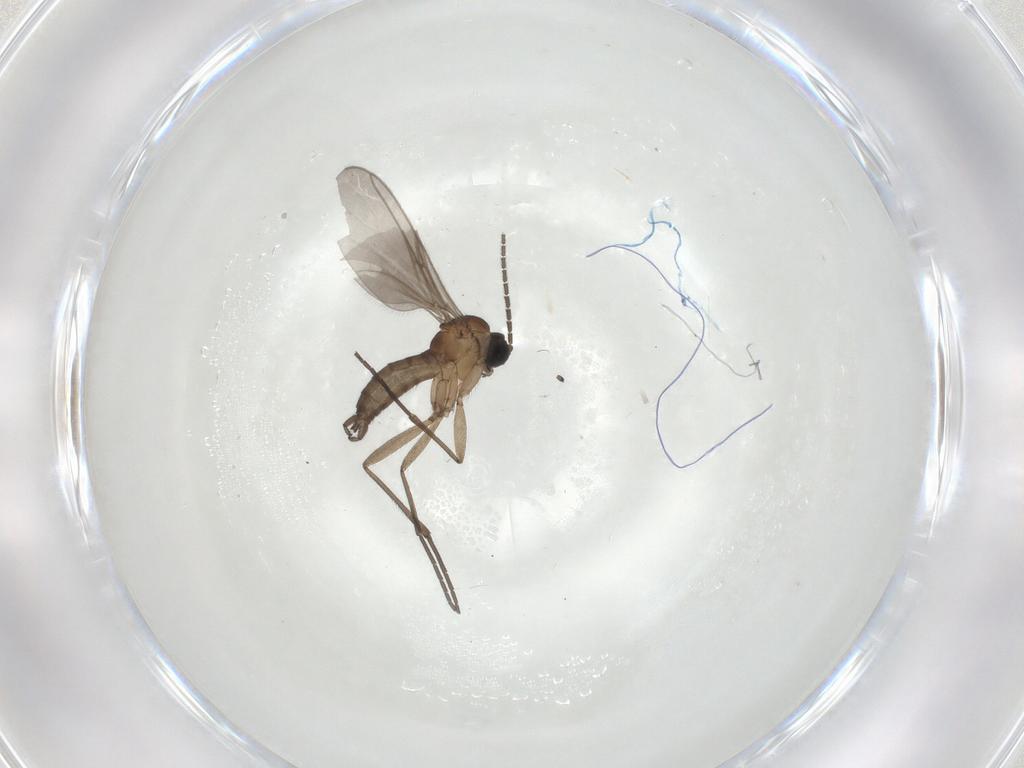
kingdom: Animalia
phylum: Arthropoda
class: Insecta
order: Diptera
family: Sciaridae
